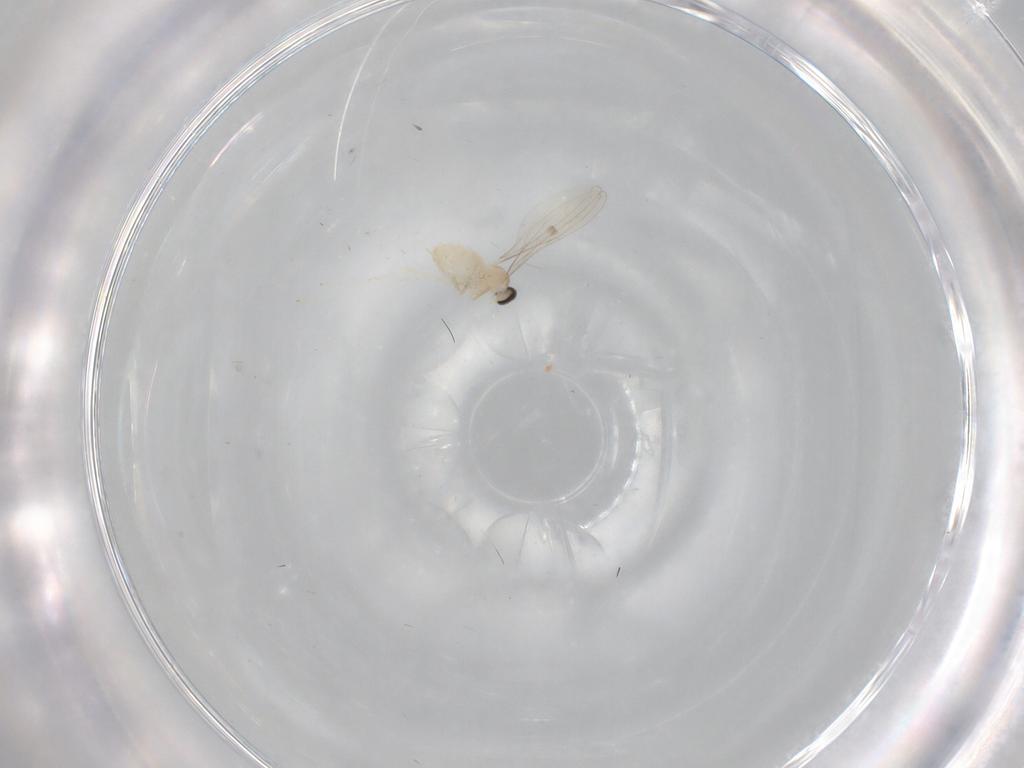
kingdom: Animalia
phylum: Arthropoda
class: Insecta
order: Diptera
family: Ceratopogonidae
